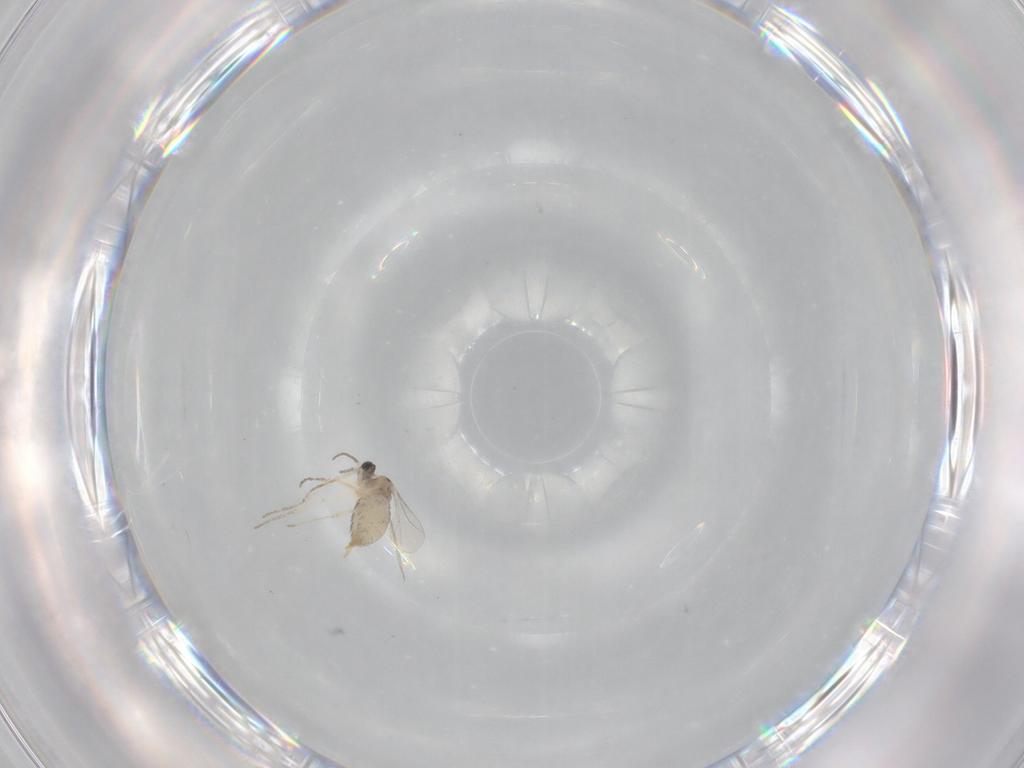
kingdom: Animalia
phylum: Arthropoda
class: Insecta
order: Diptera
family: Cecidomyiidae
